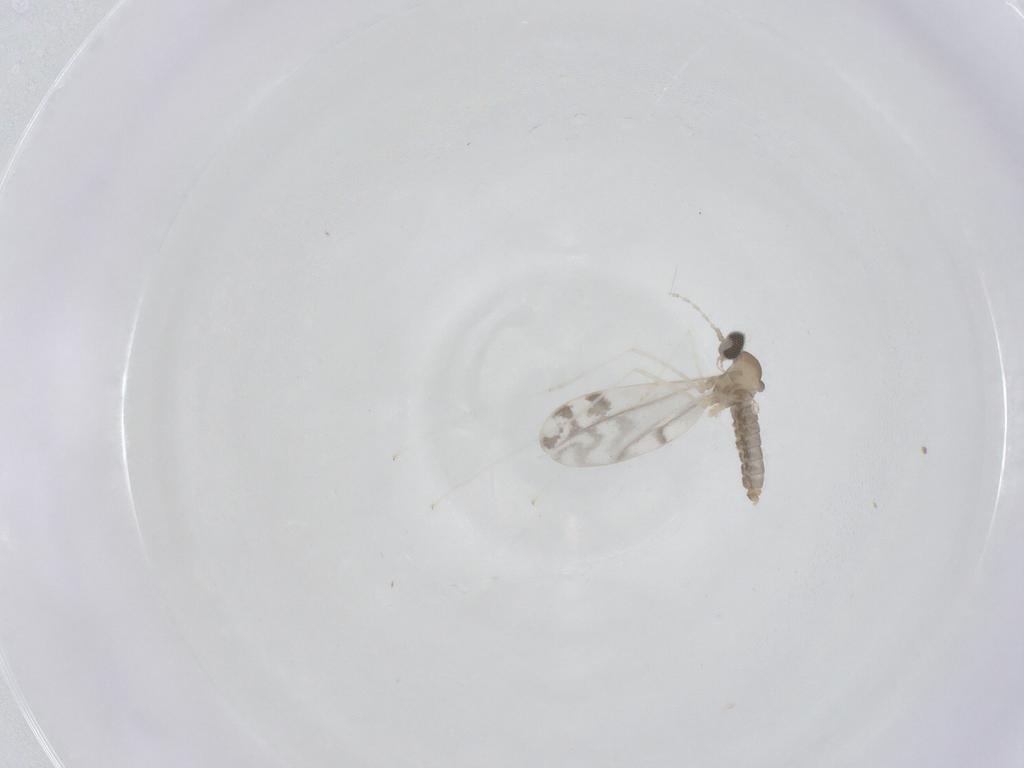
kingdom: Animalia
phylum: Arthropoda
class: Insecta
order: Diptera
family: Cecidomyiidae
